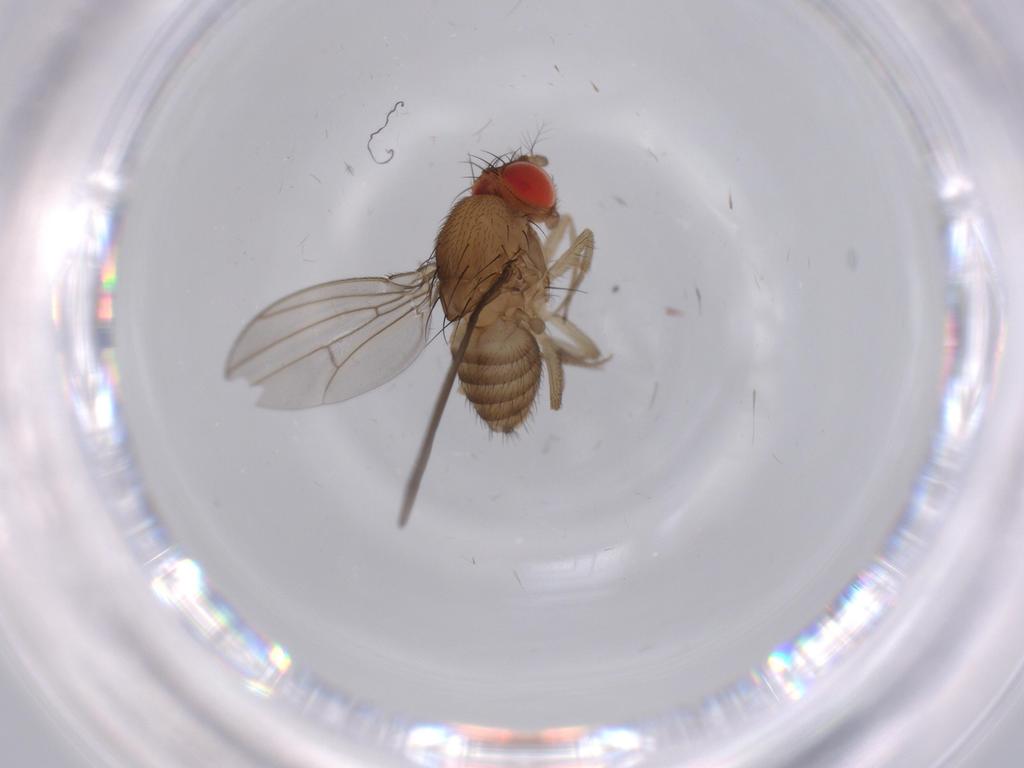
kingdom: Animalia
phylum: Arthropoda
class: Insecta
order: Diptera
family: Drosophilidae
